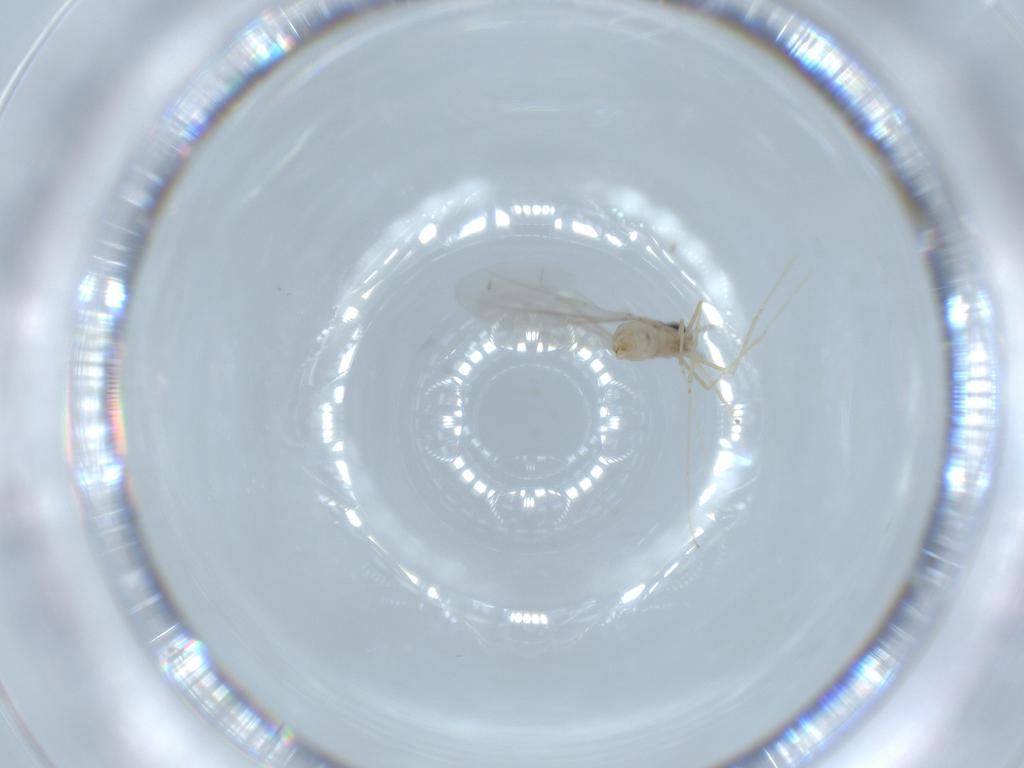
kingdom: Animalia
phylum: Arthropoda
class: Insecta
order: Diptera
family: Cecidomyiidae
